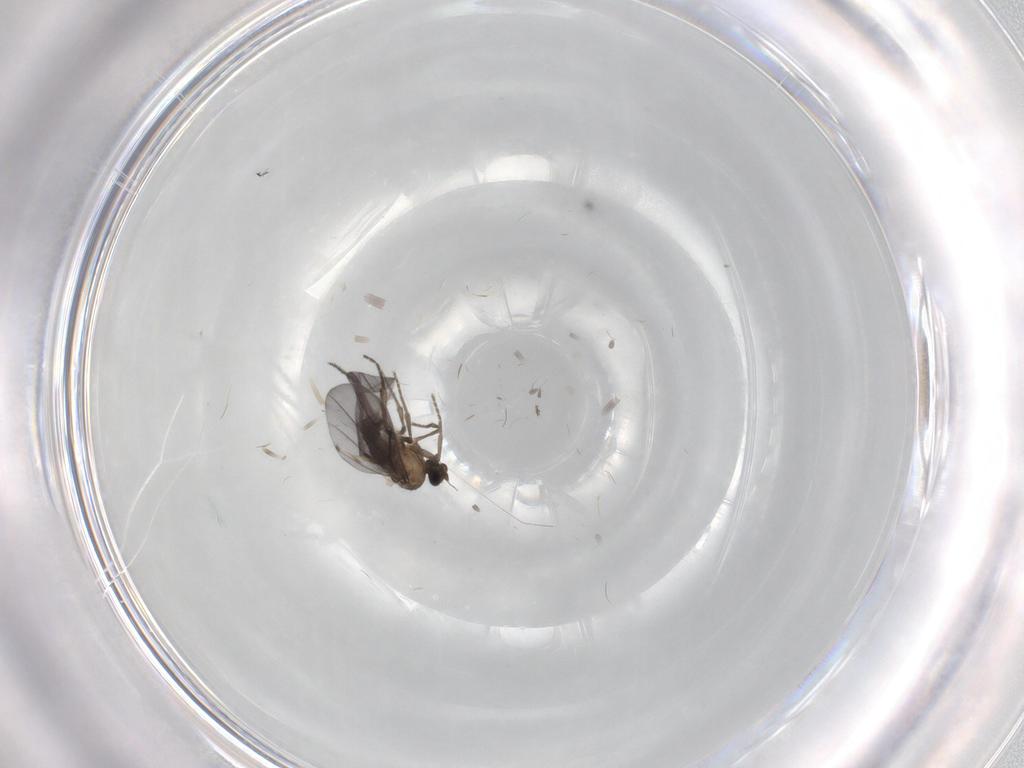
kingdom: Animalia
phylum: Arthropoda
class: Insecta
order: Diptera
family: Phoridae
